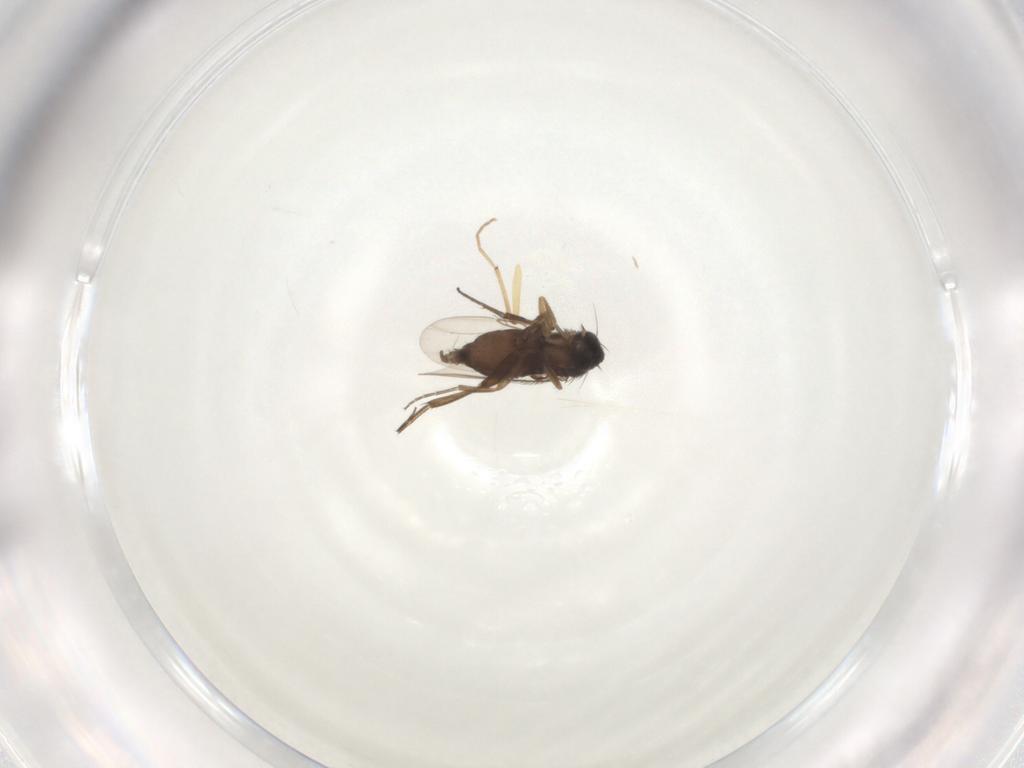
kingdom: Animalia
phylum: Arthropoda
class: Insecta
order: Diptera
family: Phoridae
